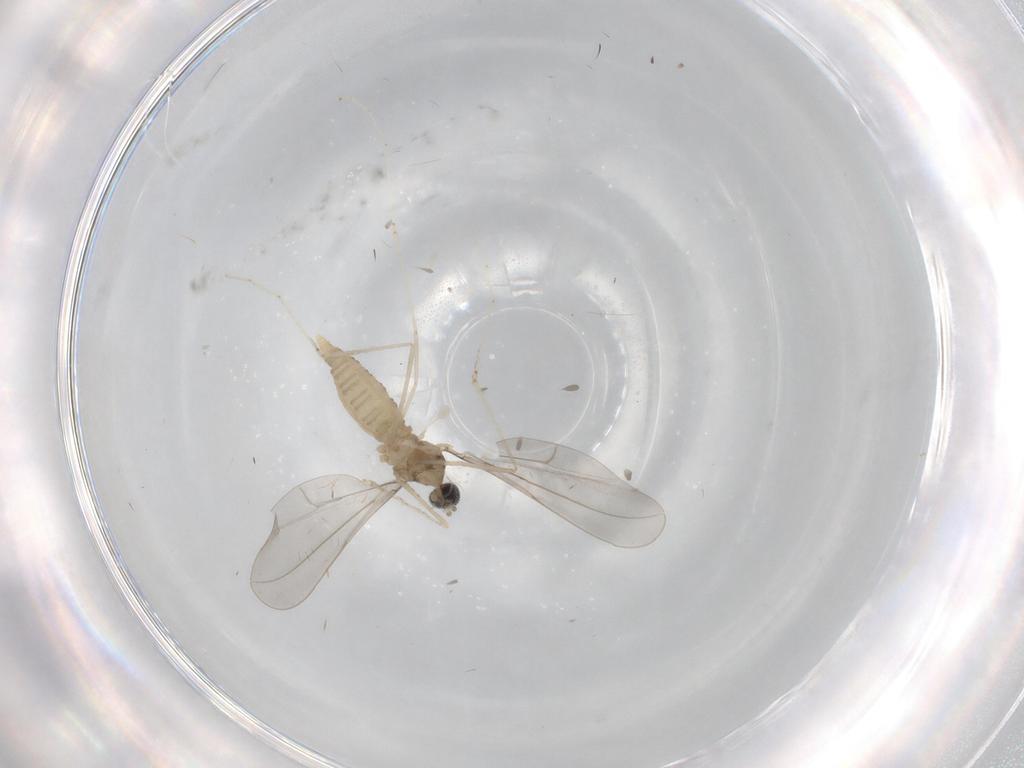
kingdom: Animalia
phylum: Arthropoda
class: Insecta
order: Diptera
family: Cecidomyiidae
